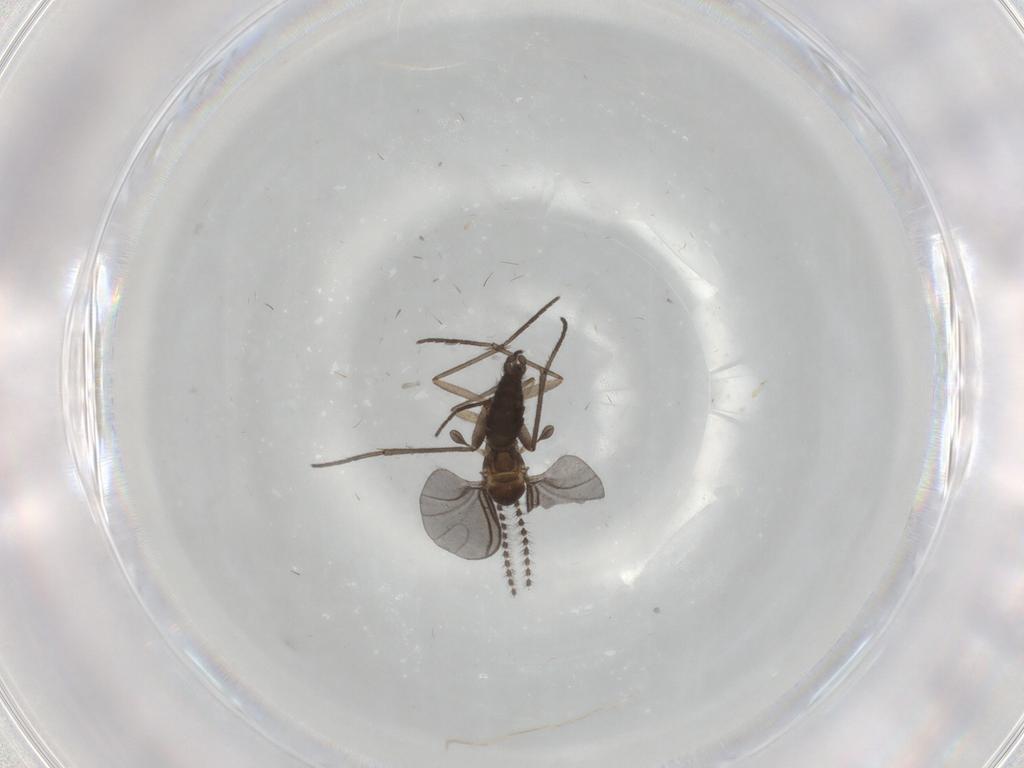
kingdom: Animalia
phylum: Arthropoda
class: Insecta
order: Diptera
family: Sciaridae
